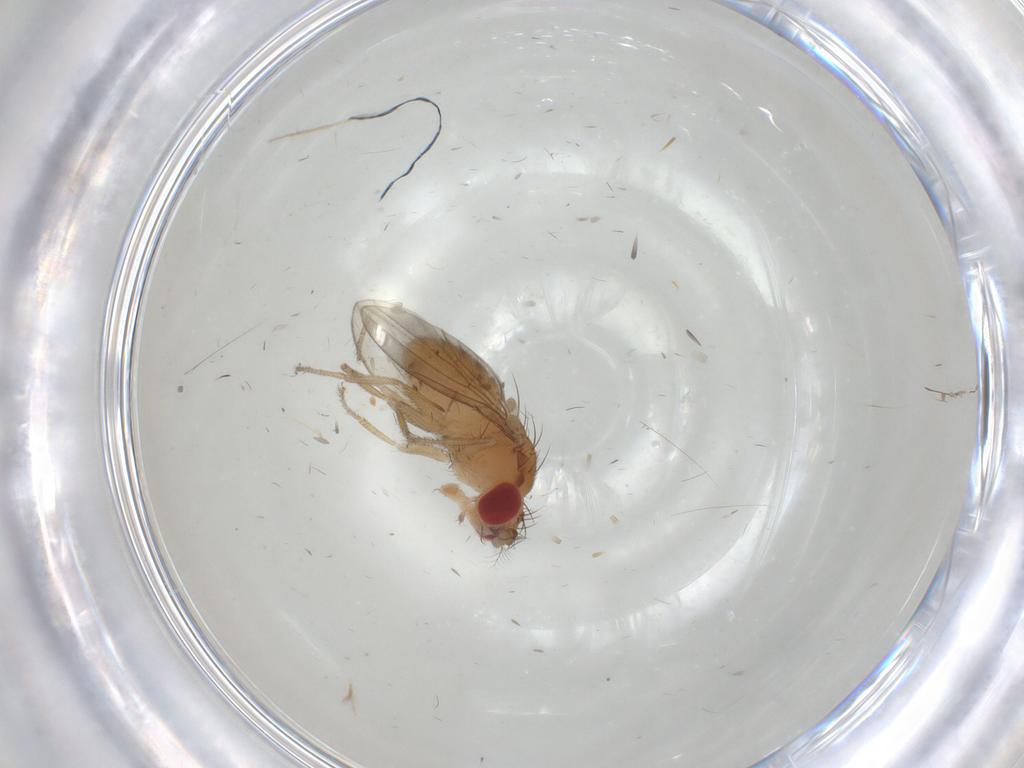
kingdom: Animalia
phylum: Arthropoda
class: Insecta
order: Diptera
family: Drosophilidae
